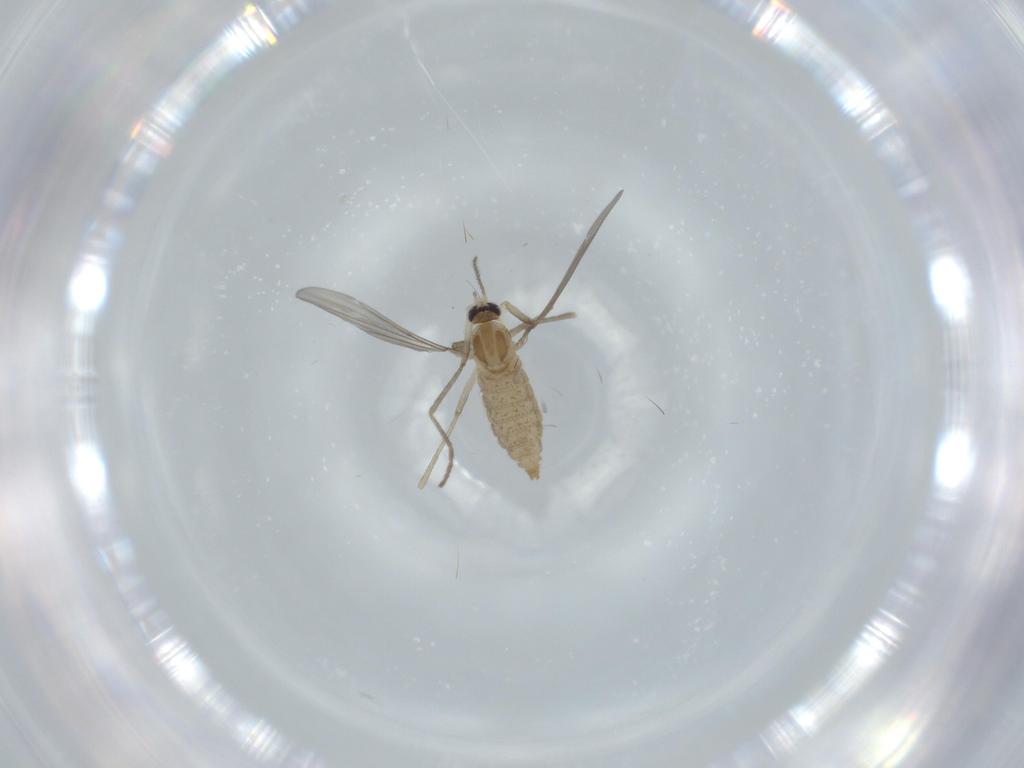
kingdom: Animalia
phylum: Arthropoda
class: Insecta
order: Diptera
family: Cecidomyiidae
